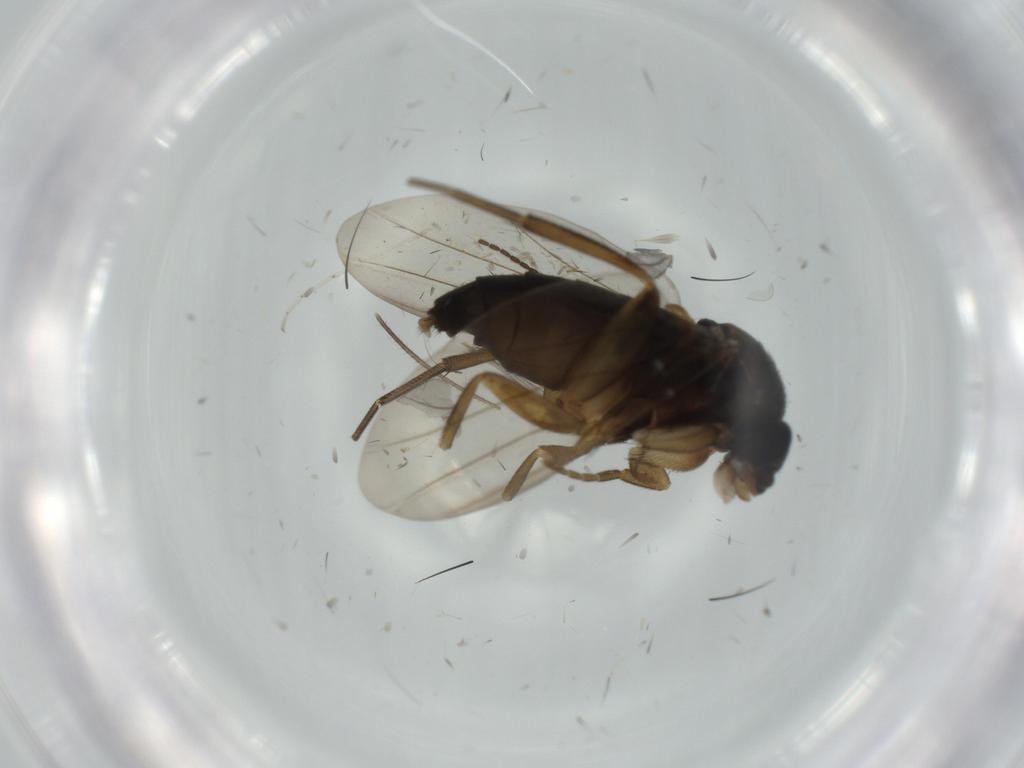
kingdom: Animalia
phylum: Arthropoda
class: Insecta
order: Diptera
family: Phoridae
